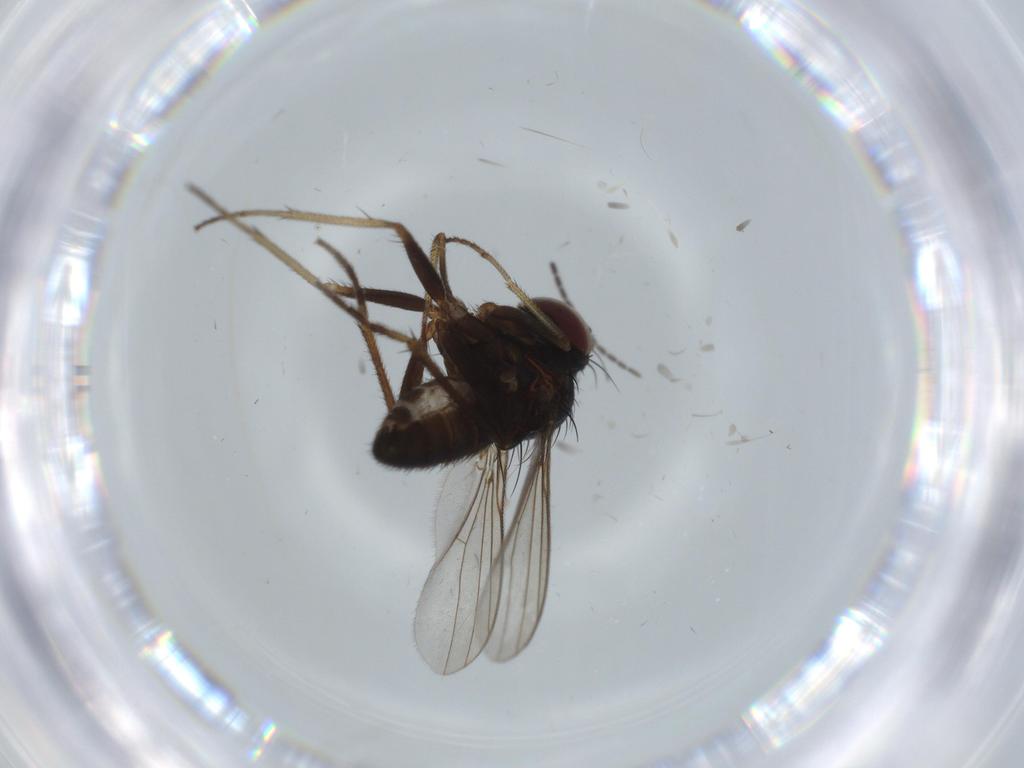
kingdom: Animalia
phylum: Arthropoda
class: Insecta
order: Diptera
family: Sciaridae
